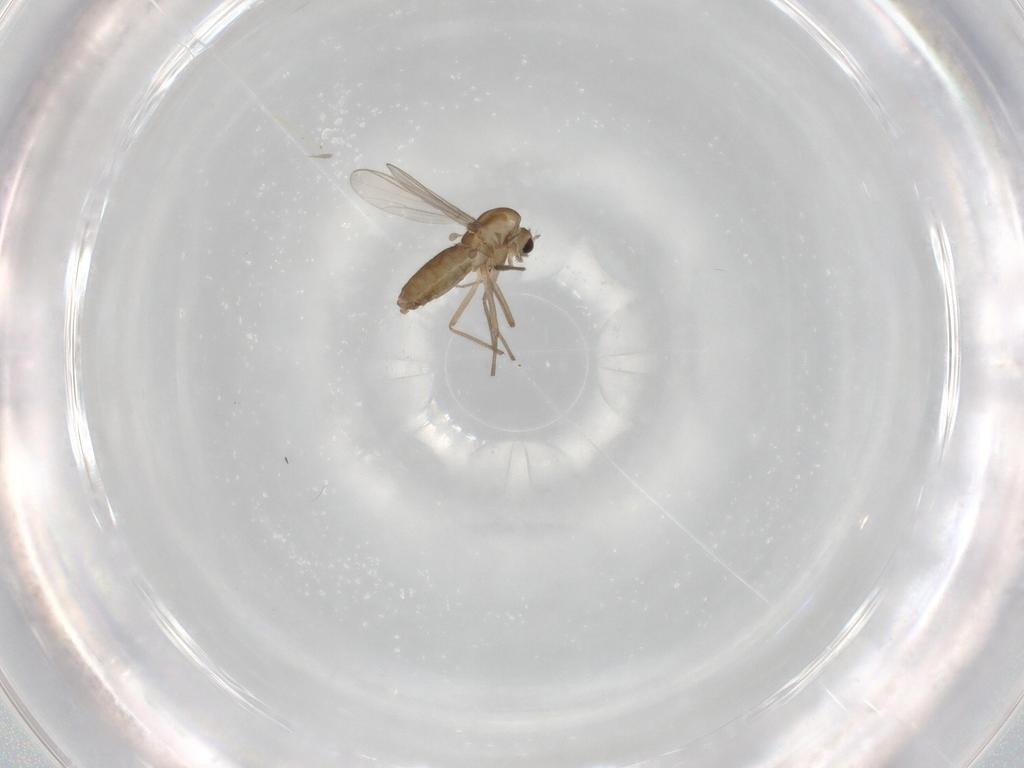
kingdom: Animalia
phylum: Arthropoda
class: Insecta
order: Diptera
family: Chironomidae
